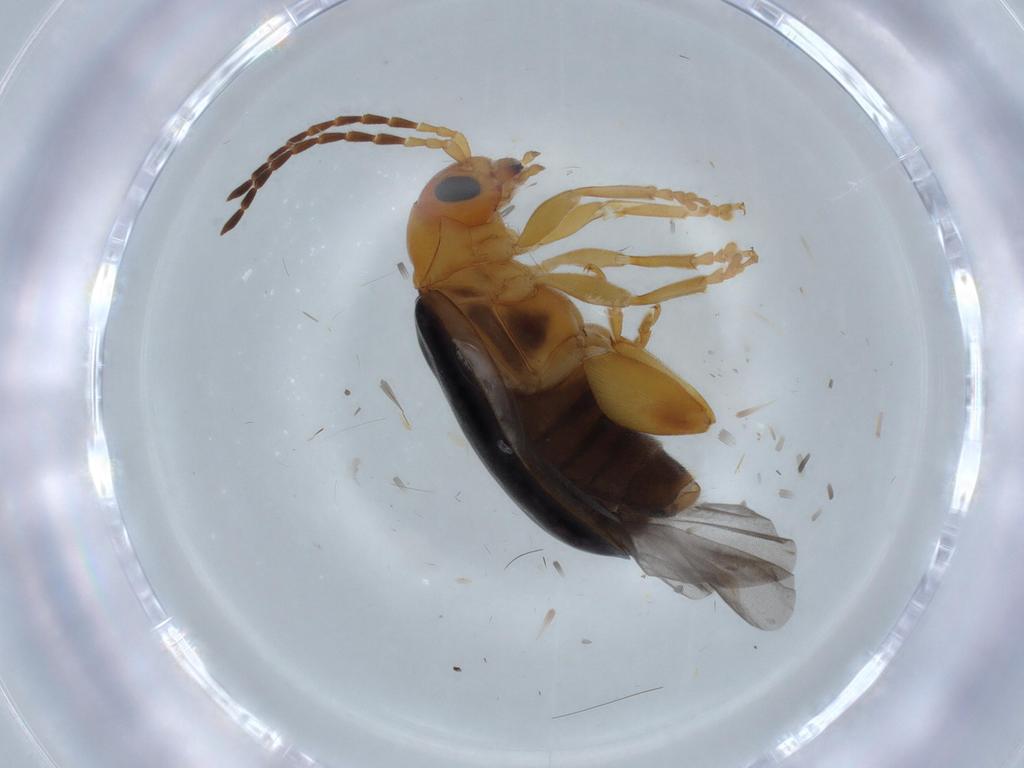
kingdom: Animalia
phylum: Arthropoda
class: Insecta
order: Coleoptera
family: Chrysomelidae
